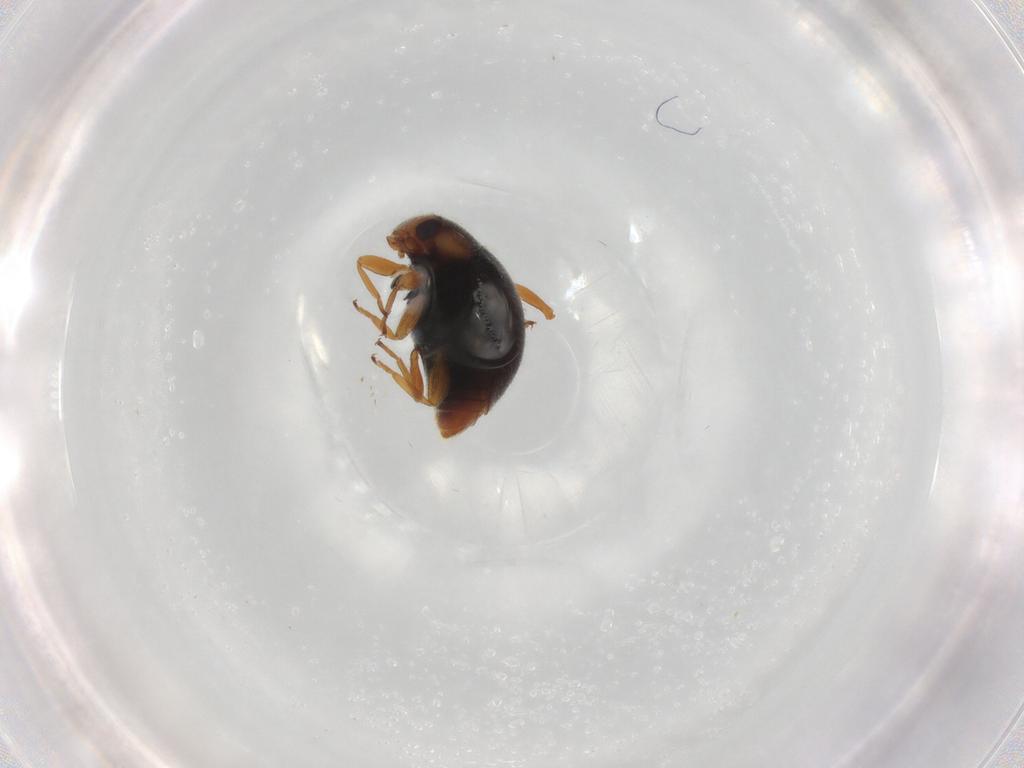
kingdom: Animalia
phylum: Arthropoda
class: Insecta
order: Coleoptera
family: Coccinellidae
